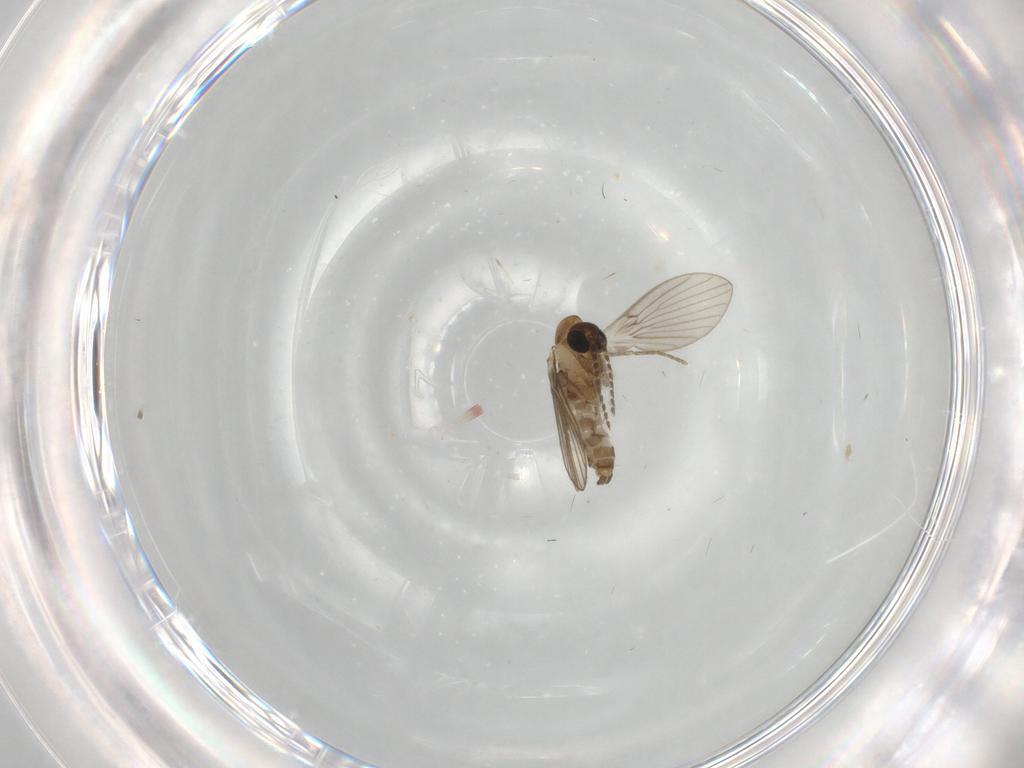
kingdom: Animalia
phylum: Arthropoda
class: Insecta
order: Diptera
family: Psychodidae
